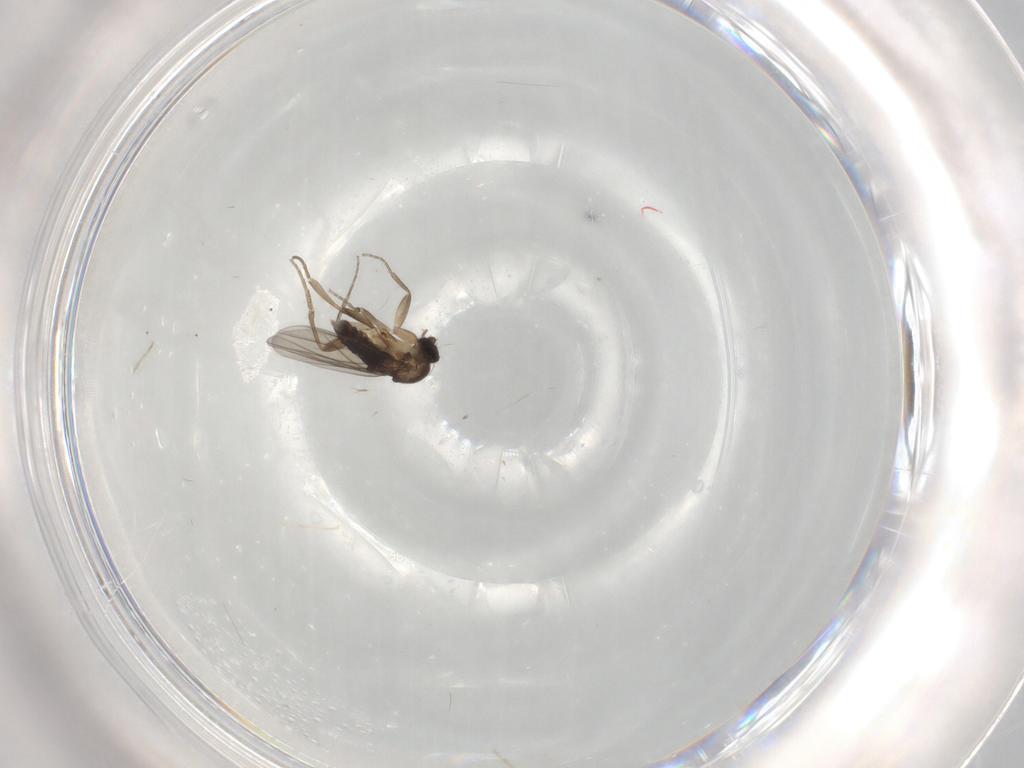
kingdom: Animalia
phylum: Arthropoda
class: Insecta
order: Diptera
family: Phoridae
